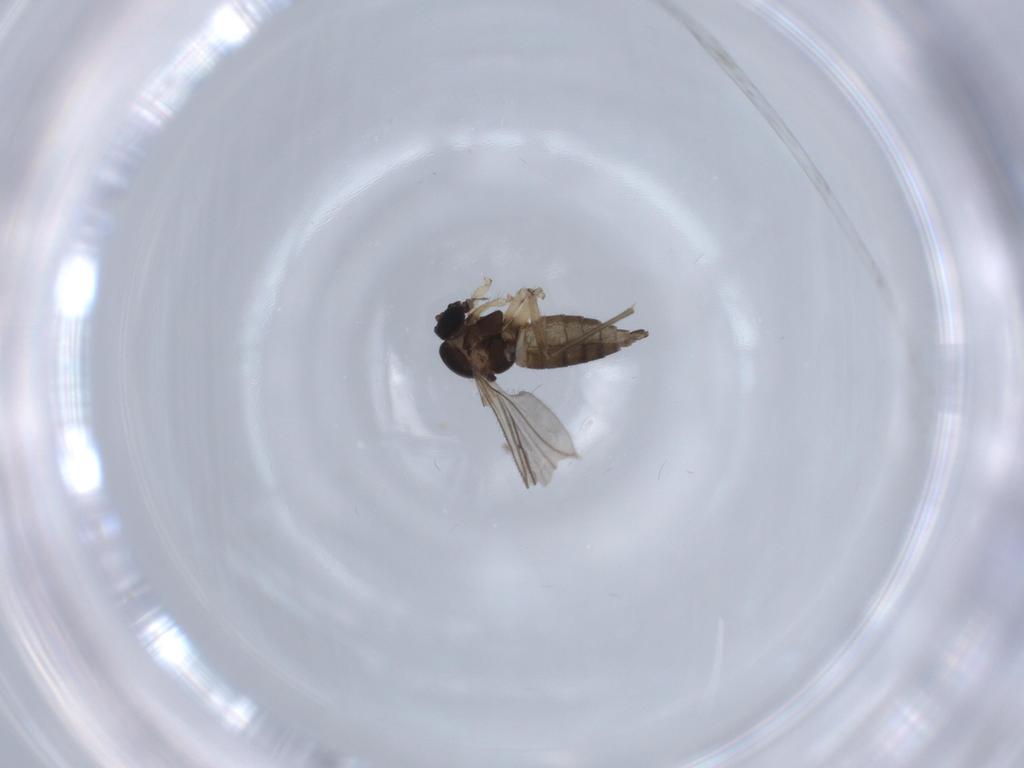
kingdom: Animalia
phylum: Arthropoda
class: Insecta
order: Diptera
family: Sciaridae
